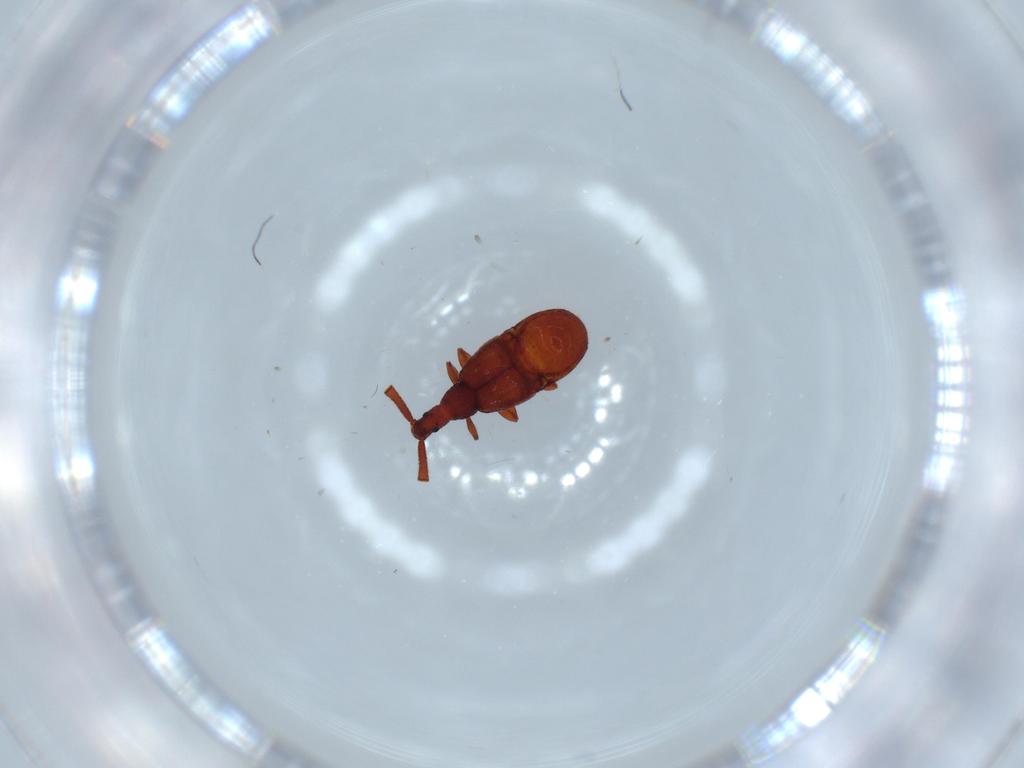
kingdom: Animalia
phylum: Arthropoda
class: Insecta
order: Coleoptera
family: Staphylinidae
